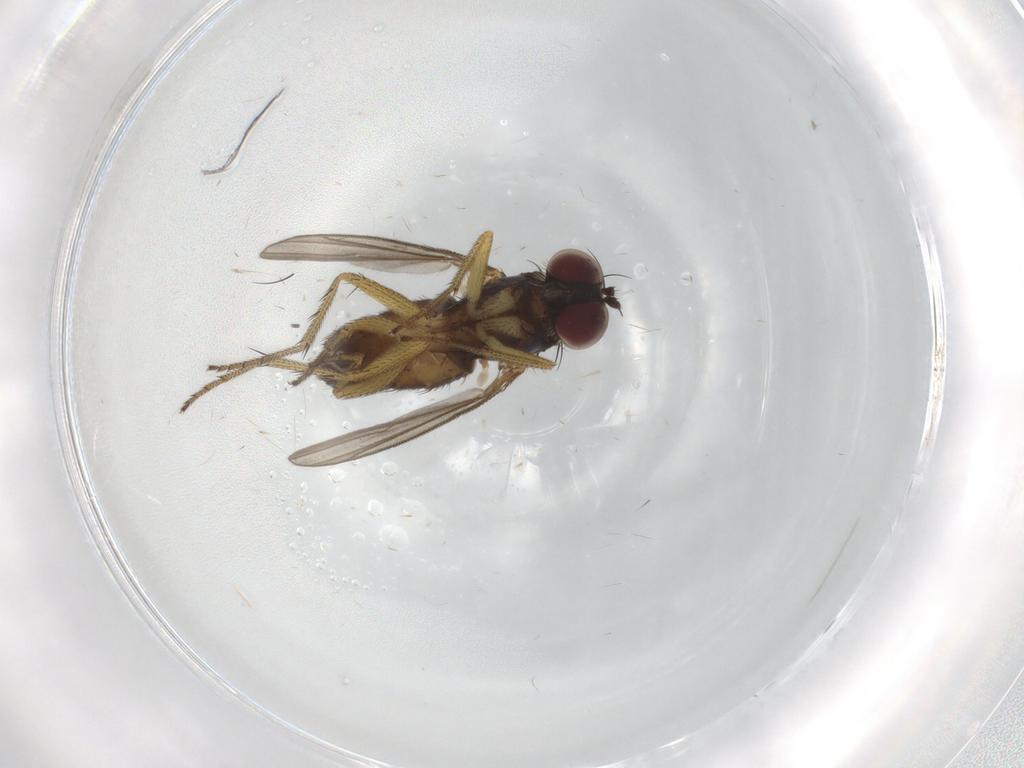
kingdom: Animalia
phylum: Arthropoda
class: Insecta
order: Diptera
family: Dolichopodidae
